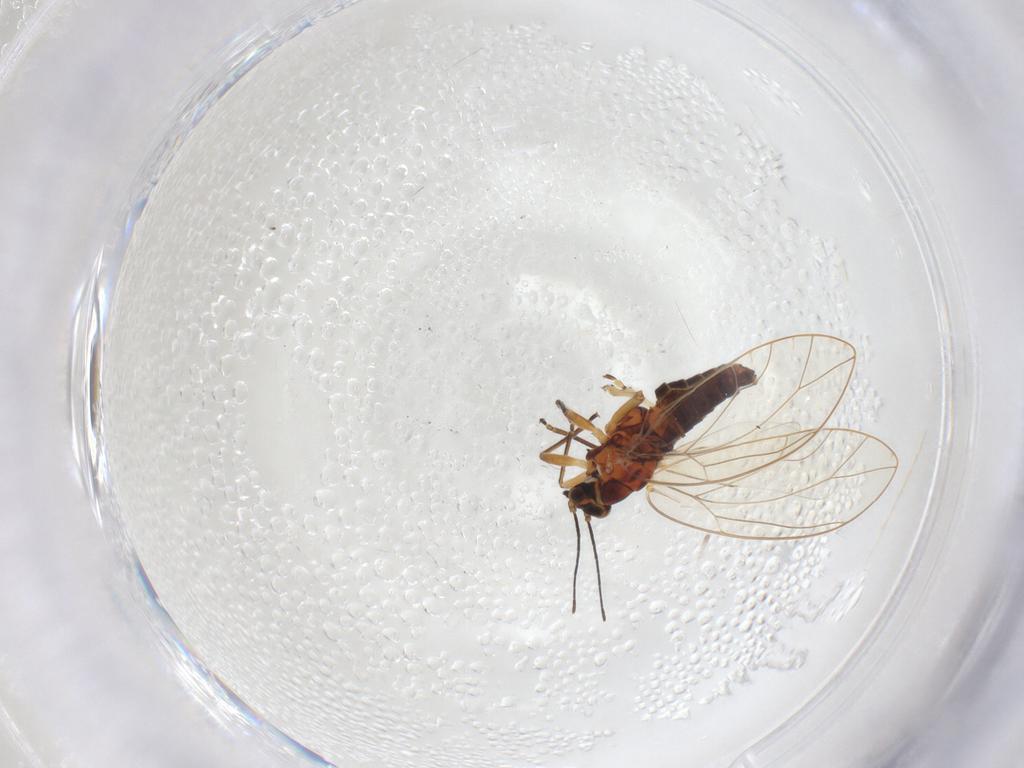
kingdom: Animalia
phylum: Arthropoda
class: Insecta
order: Hemiptera
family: Triozidae
